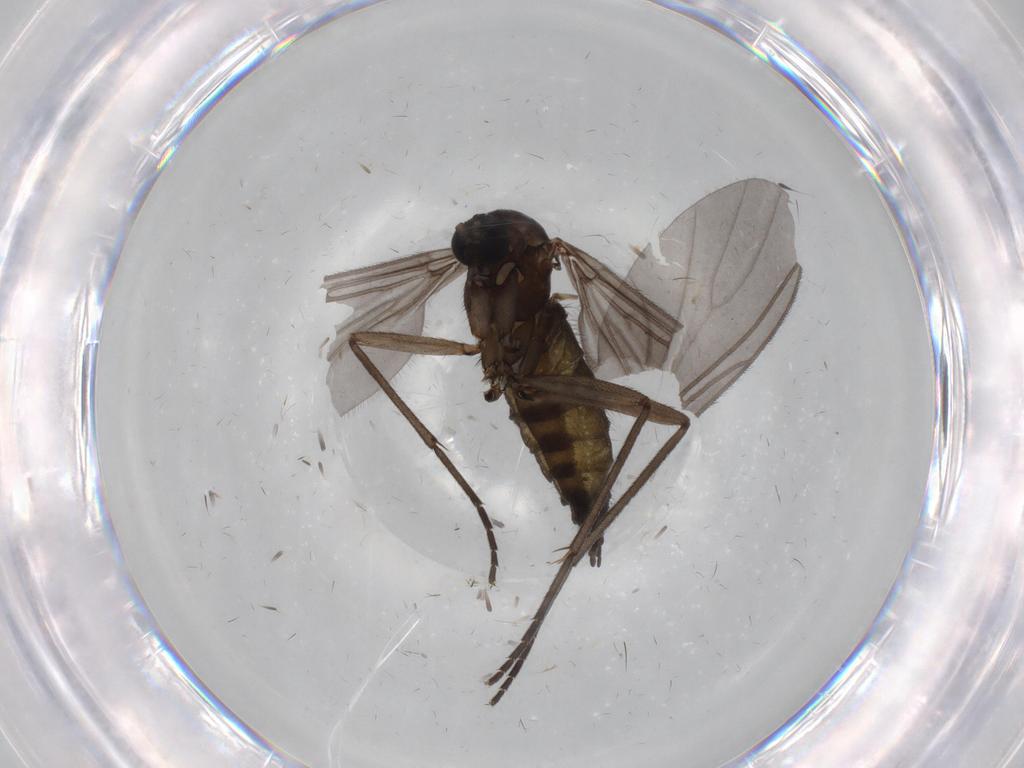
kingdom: Animalia
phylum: Arthropoda
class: Insecta
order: Diptera
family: Sciaridae
